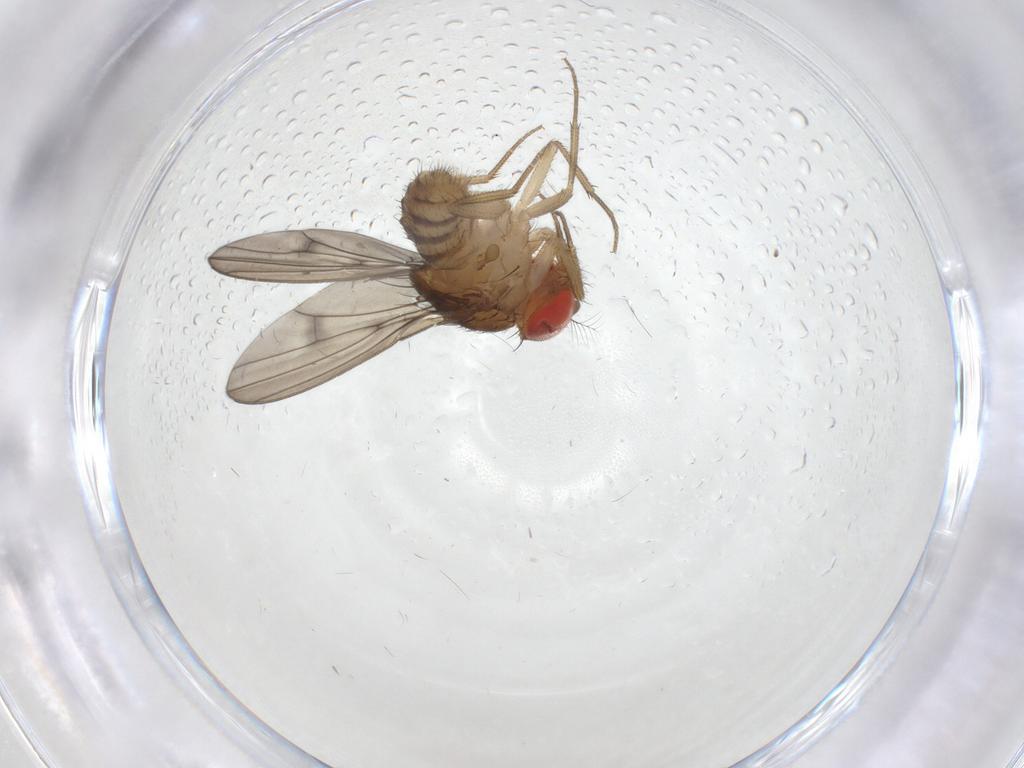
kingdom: Animalia
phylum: Arthropoda
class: Insecta
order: Diptera
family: Drosophilidae
